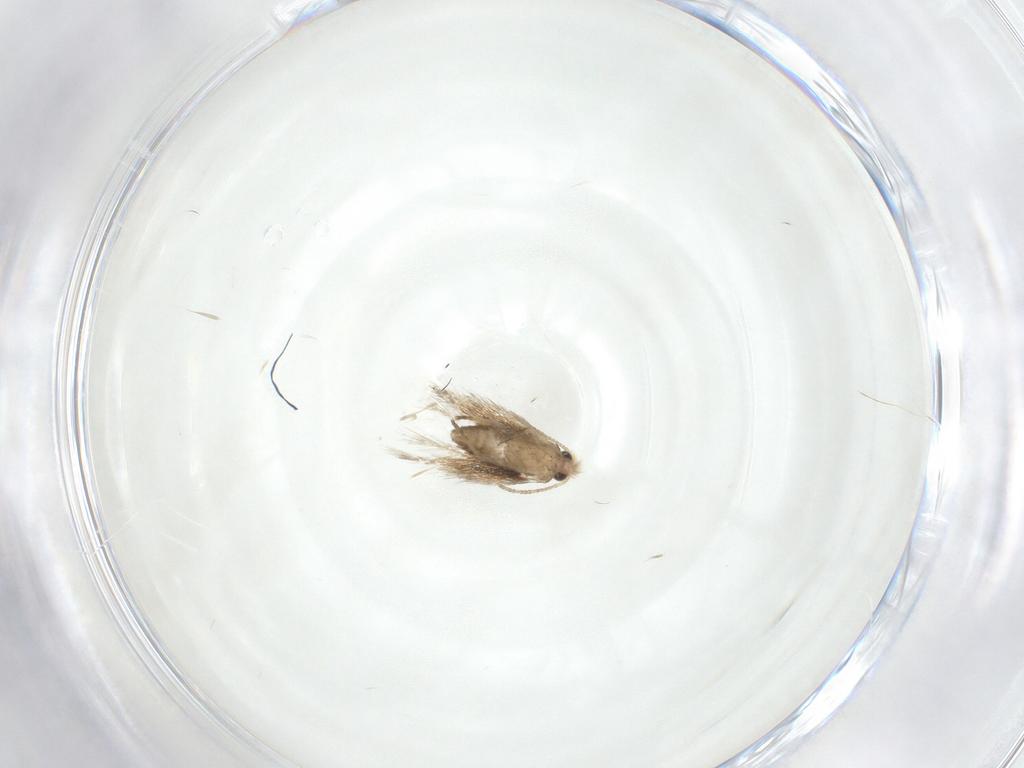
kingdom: Animalia
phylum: Arthropoda
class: Insecta
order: Lepidoptera
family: Nepticulidae
